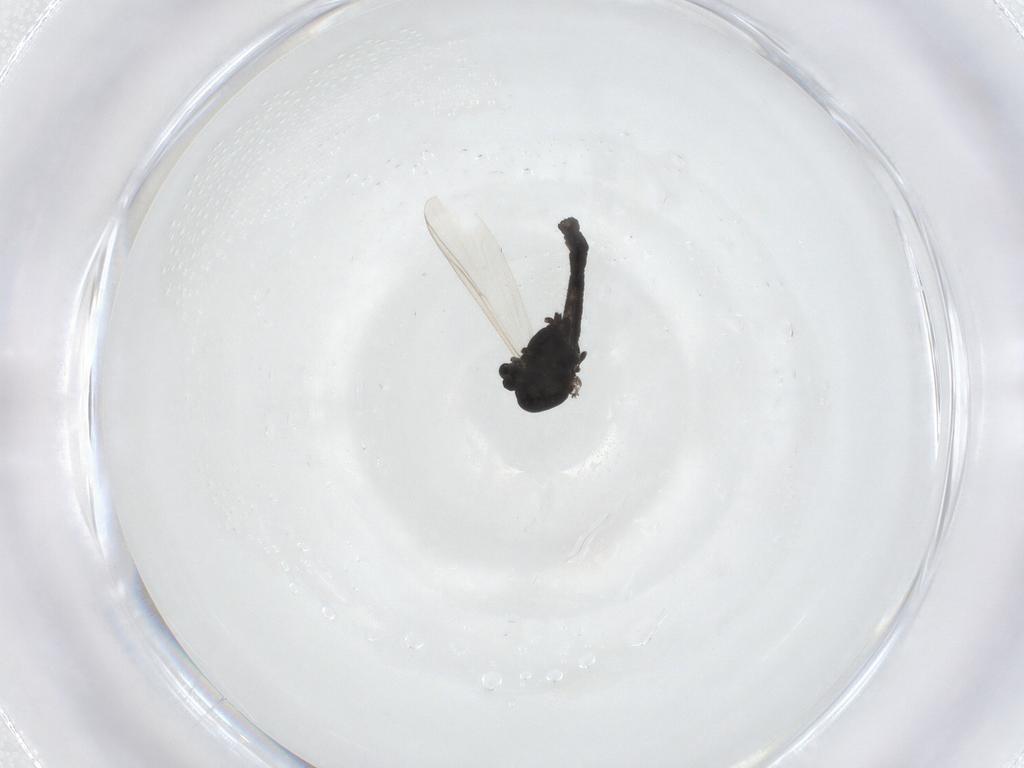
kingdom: Animalia
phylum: Arthropoda
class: Insecta
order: Diptera
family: Chironomidae
